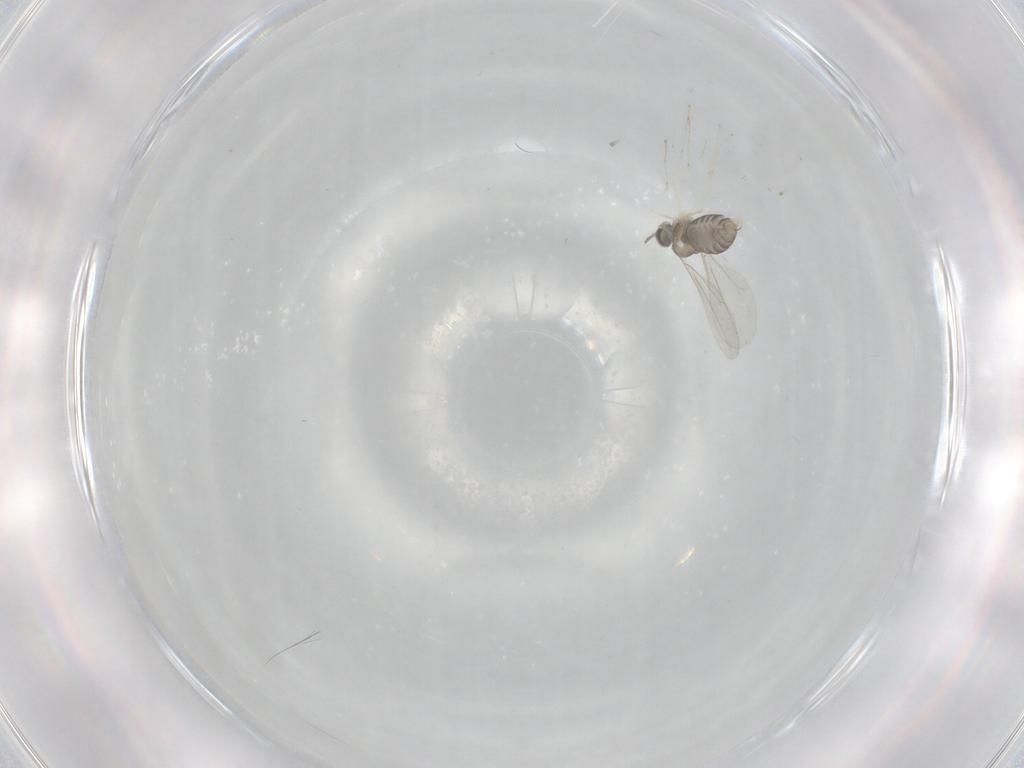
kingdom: Animalia
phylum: Arthropoda
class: Insecta
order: Diptera
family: Cecidomyiidae
